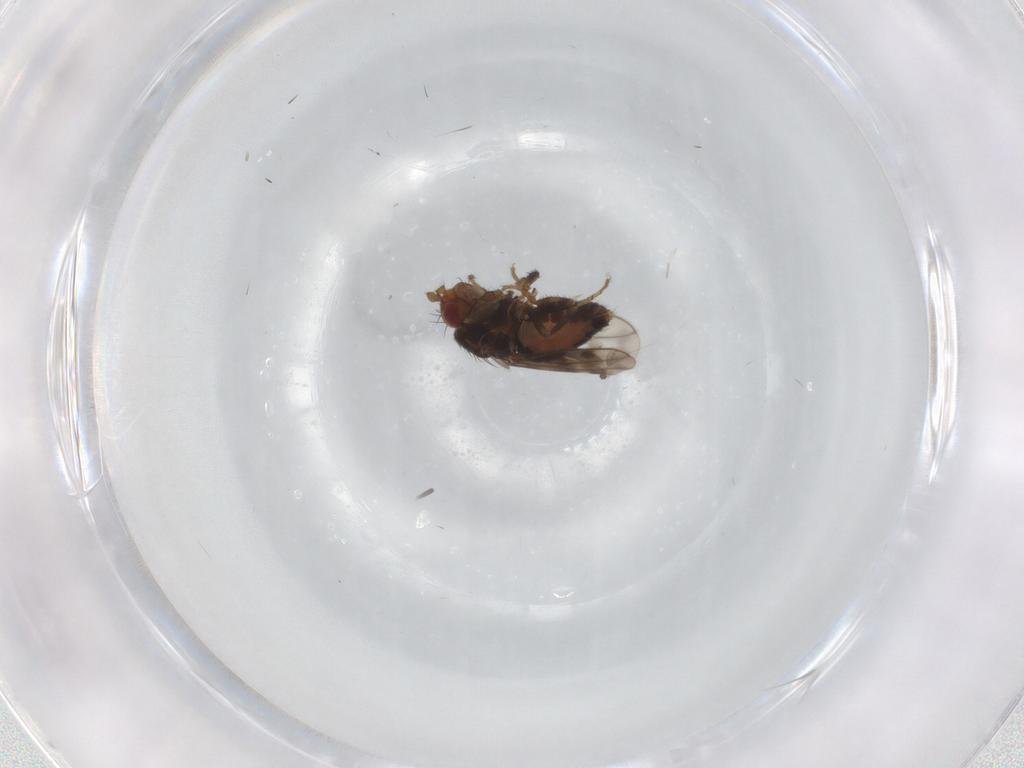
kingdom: Animalia
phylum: Arthropoda
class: Insecta
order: Diptera
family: Sphaeroceridae
